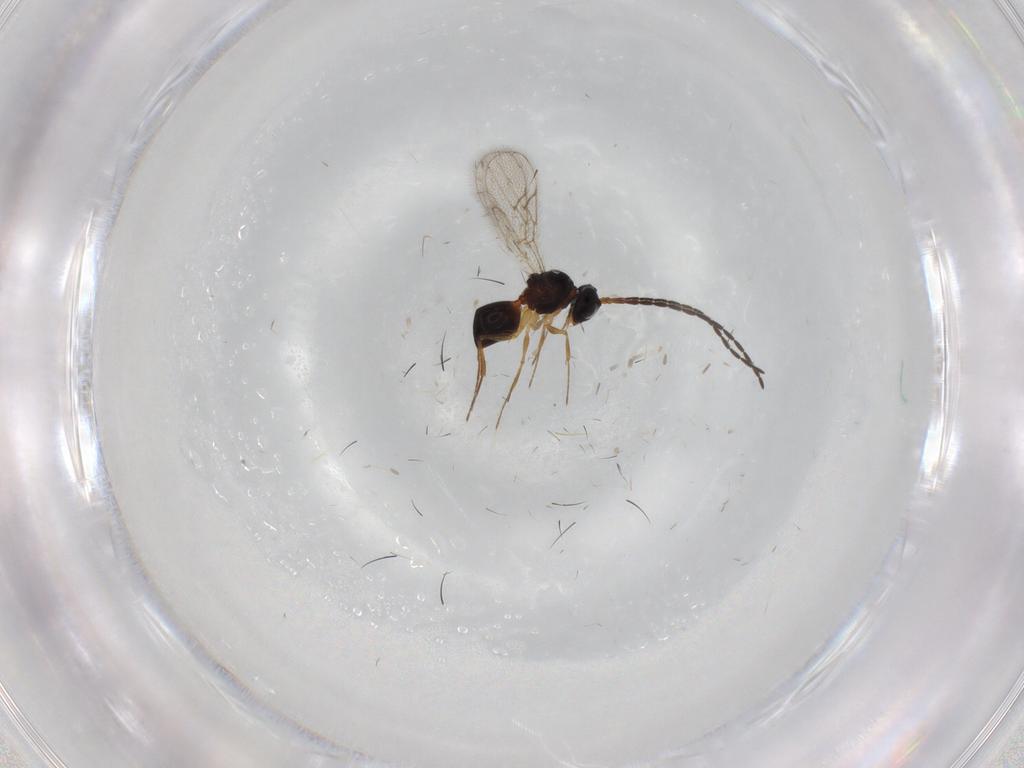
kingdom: Animalia
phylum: Arthropoda
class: Insecta
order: Hymenoptera
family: Figitidae
